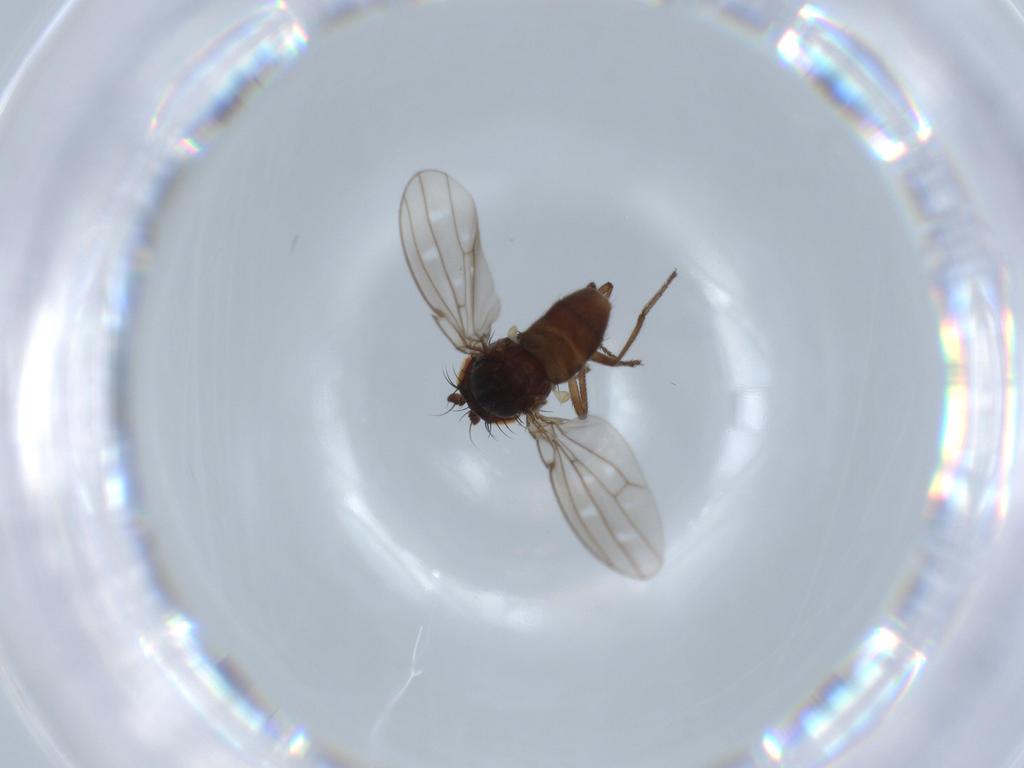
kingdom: Animalia
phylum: Arthropoda
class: Insecta
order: Diptera
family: Ephydridae
